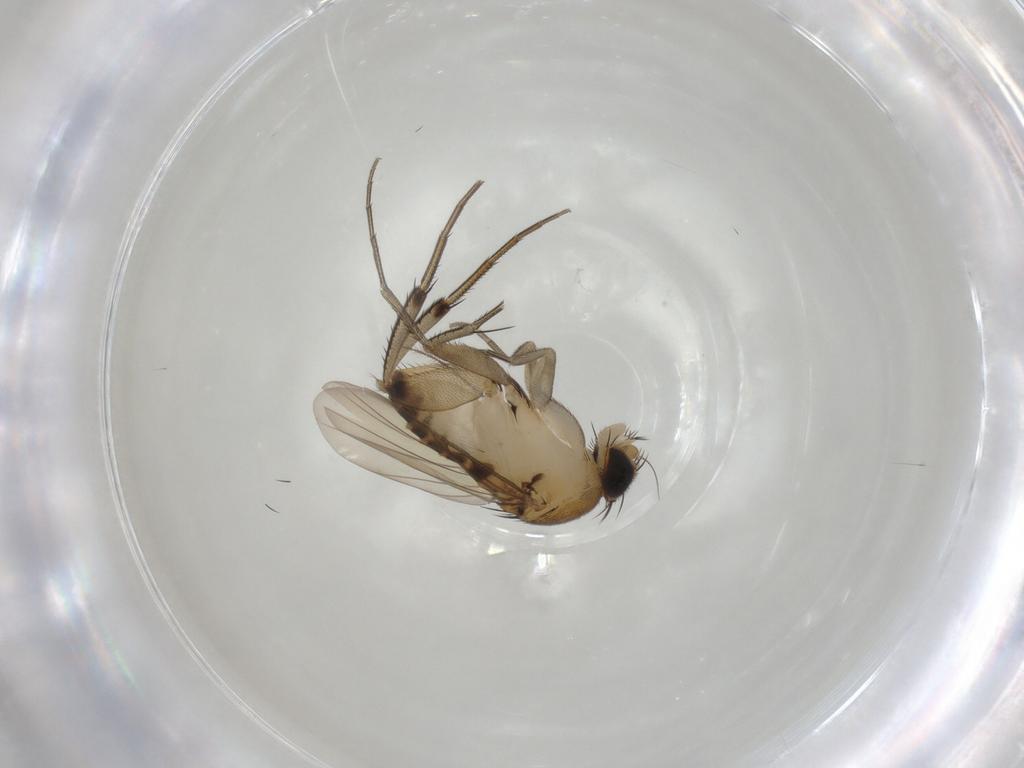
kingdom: Animalia
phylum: Arthropoda
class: Insecta
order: Diptera
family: Phoridae
